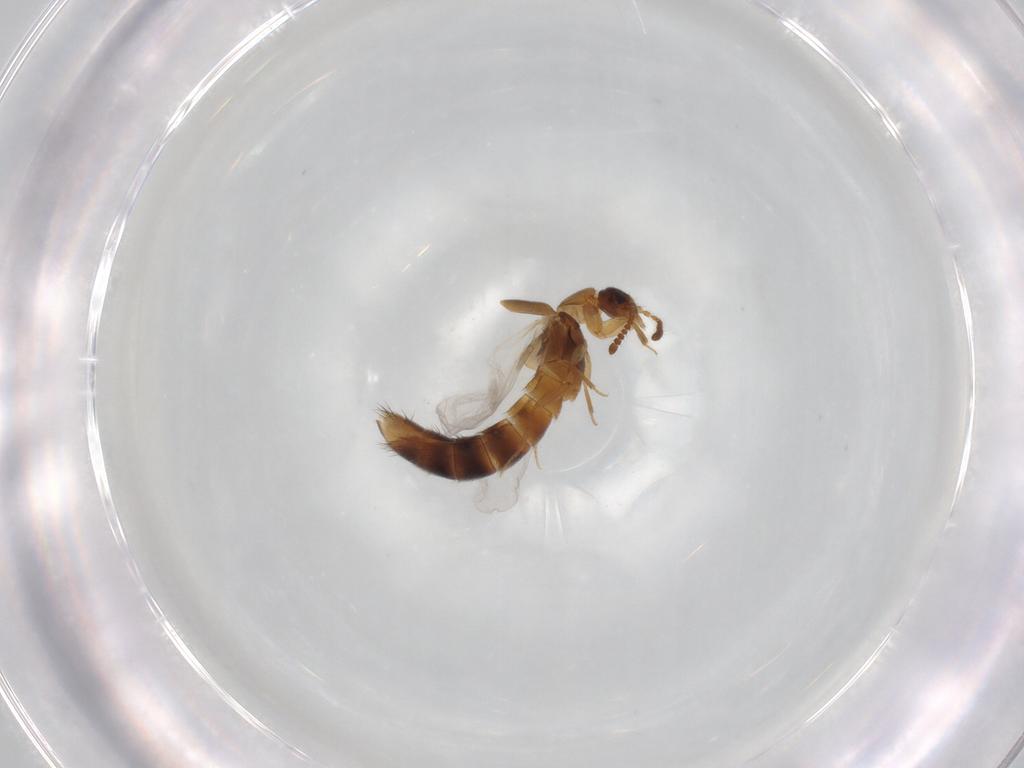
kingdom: Animalia
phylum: Arthropoda
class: Insecta
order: Coleoptera
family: Staphylinidae
